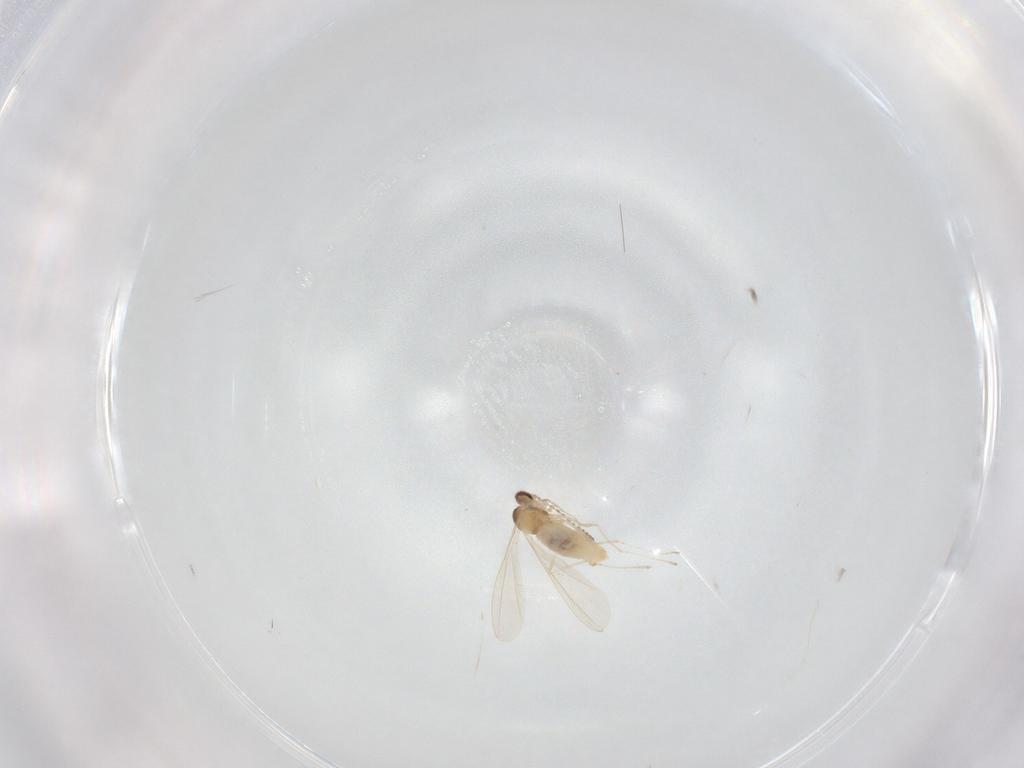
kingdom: Animalia
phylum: Arthropoda
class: Insecta
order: Diptera
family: Cecidomyiidae
